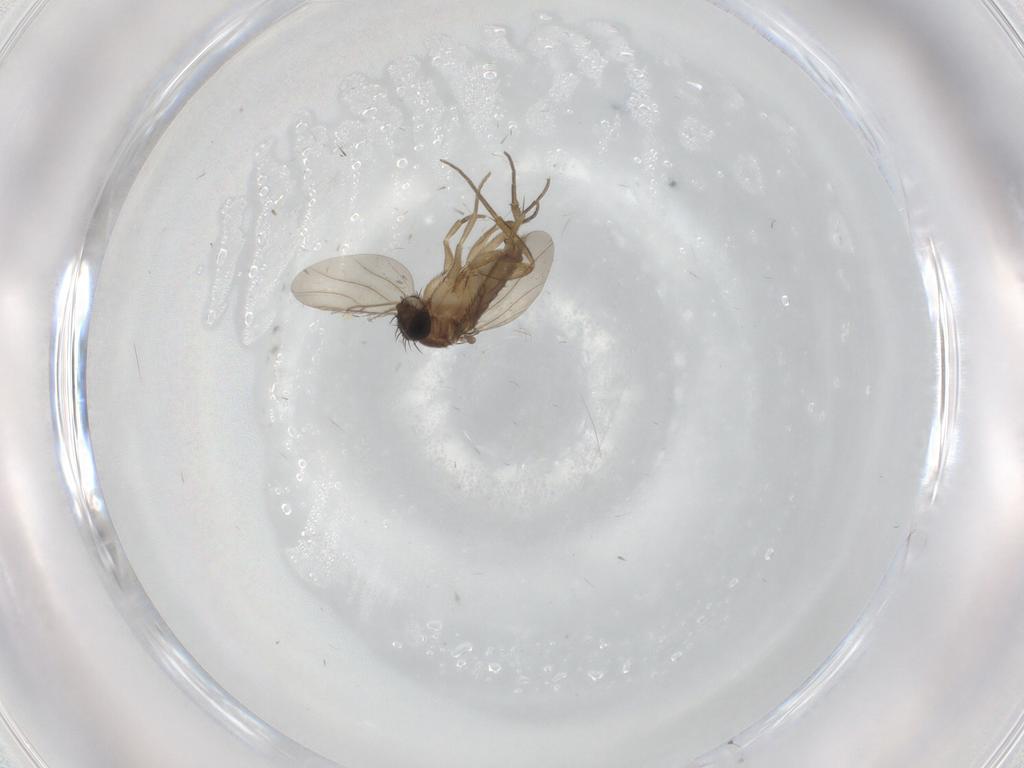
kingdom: Animalia
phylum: Arthropoda
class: Insecta
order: Diptera
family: Phoridae
